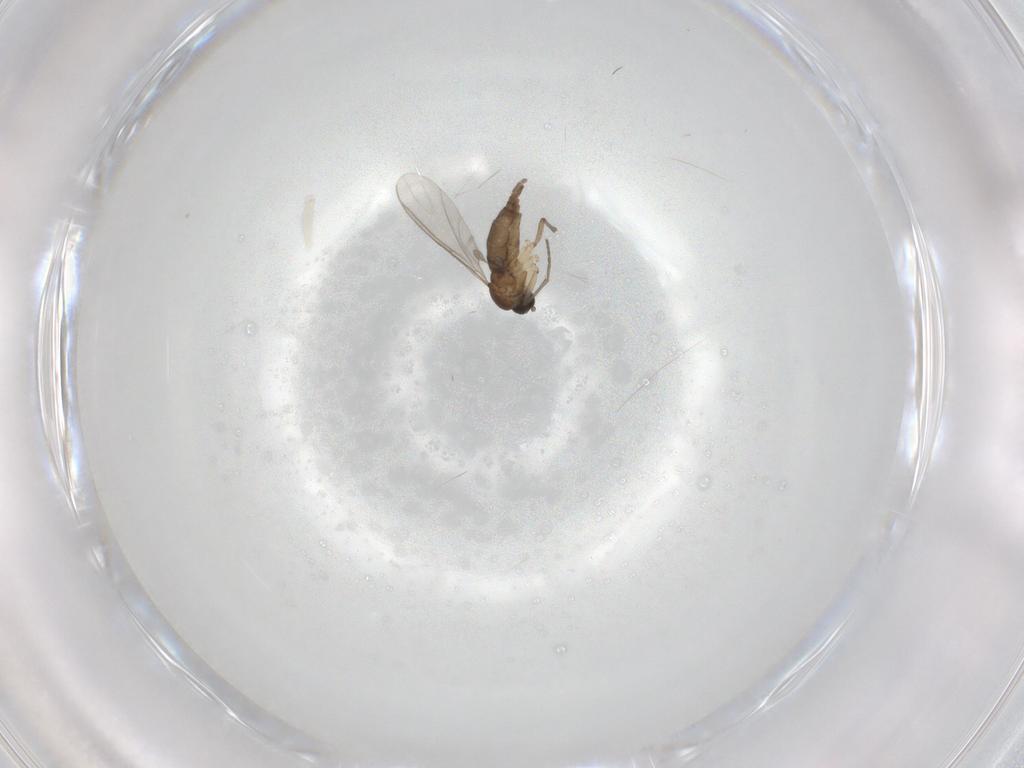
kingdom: Animalia
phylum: Arthropoda
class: Insecta
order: Diptera
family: Sciaridae
